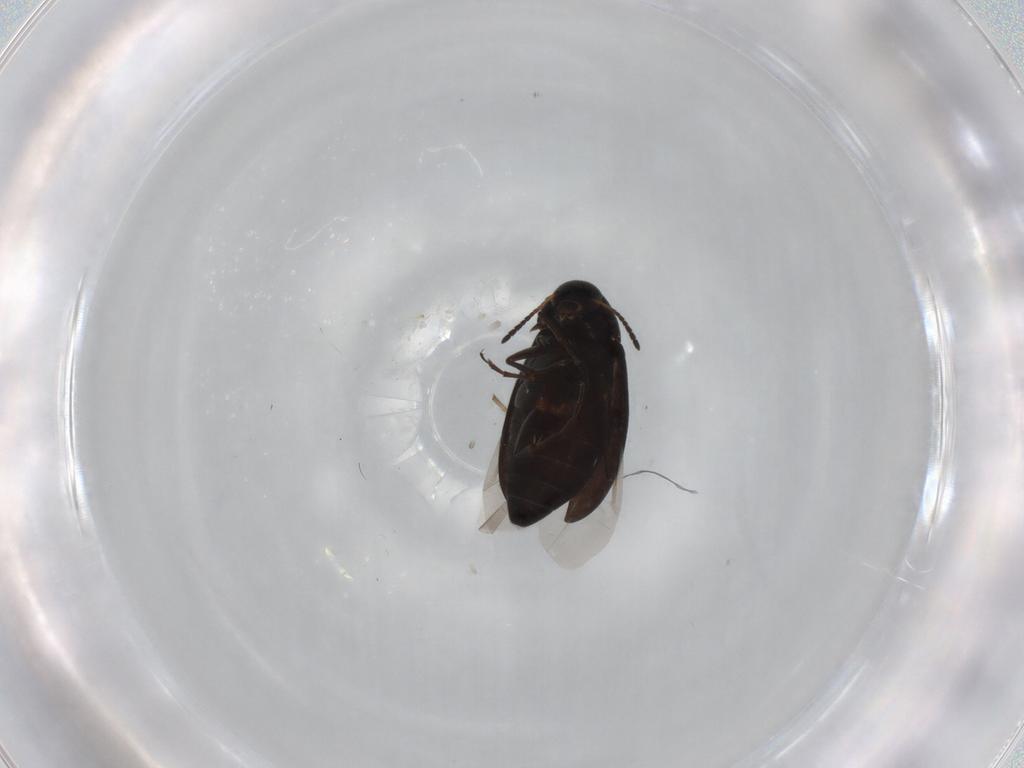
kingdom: Animalia
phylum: Arthropoda
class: Insecta
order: Coleoptera
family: Scraptiidae
